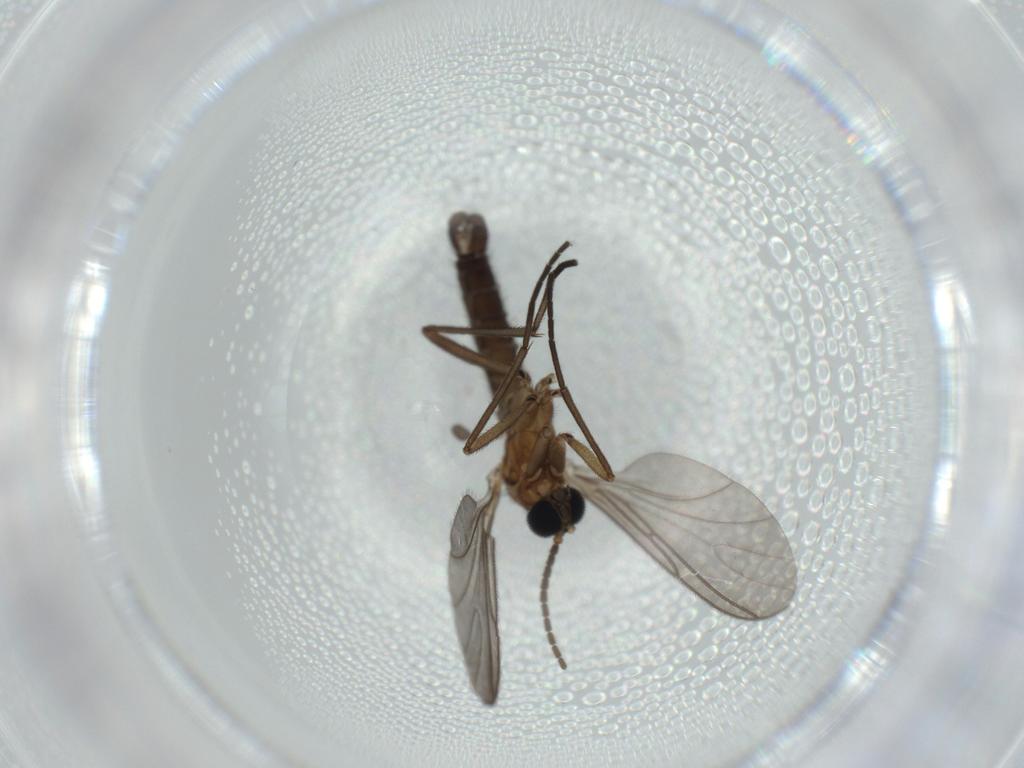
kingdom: Animalia
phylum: Arthropoda
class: Insecta
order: Diptera
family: Sciaridae
